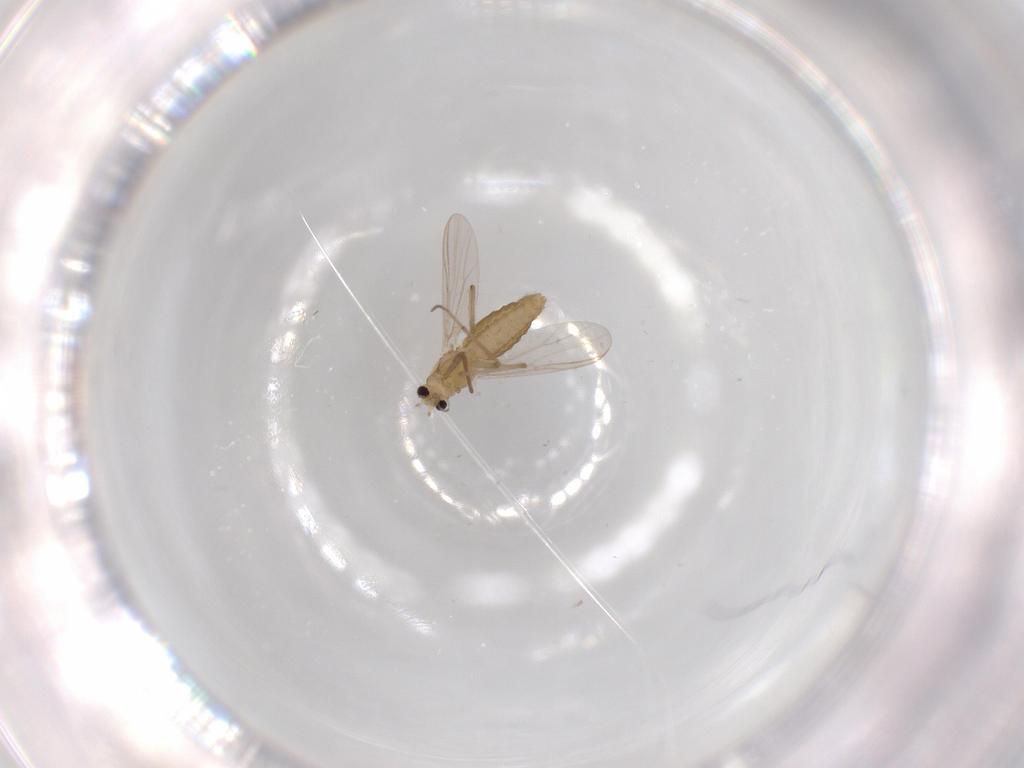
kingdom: Animalia
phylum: Arthropoda
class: Insecta
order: Diptera
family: Chironomidae
